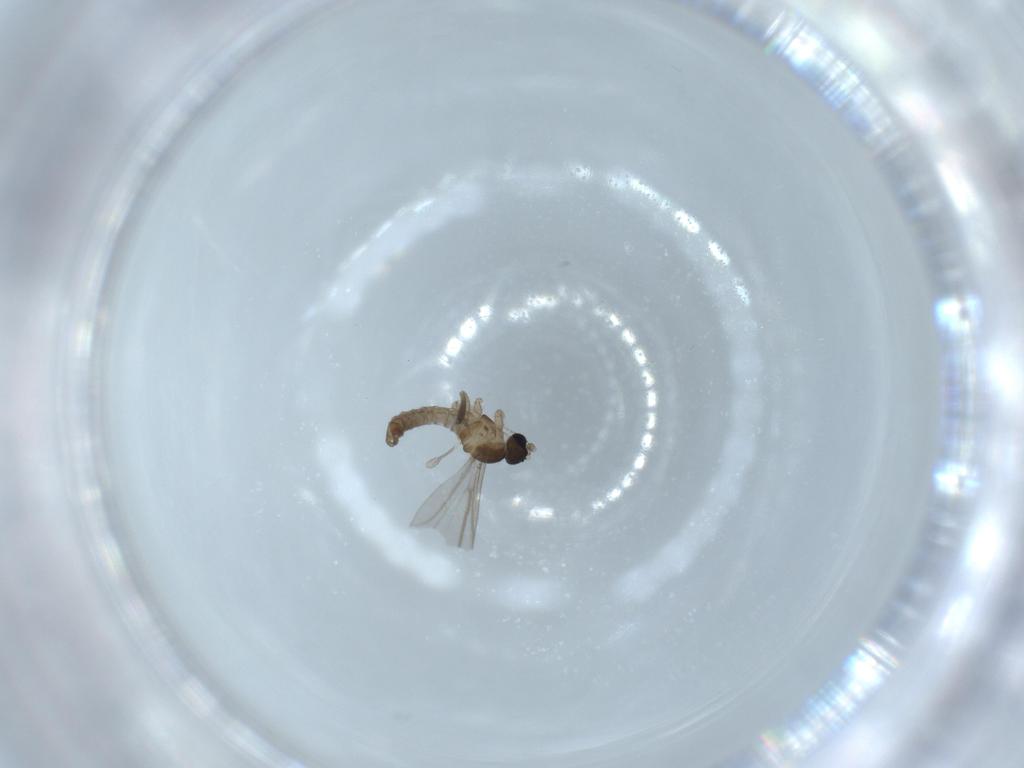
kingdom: Animalia
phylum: Arthropoda
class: Insecta
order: Diptera
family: Cecidomyiidae
